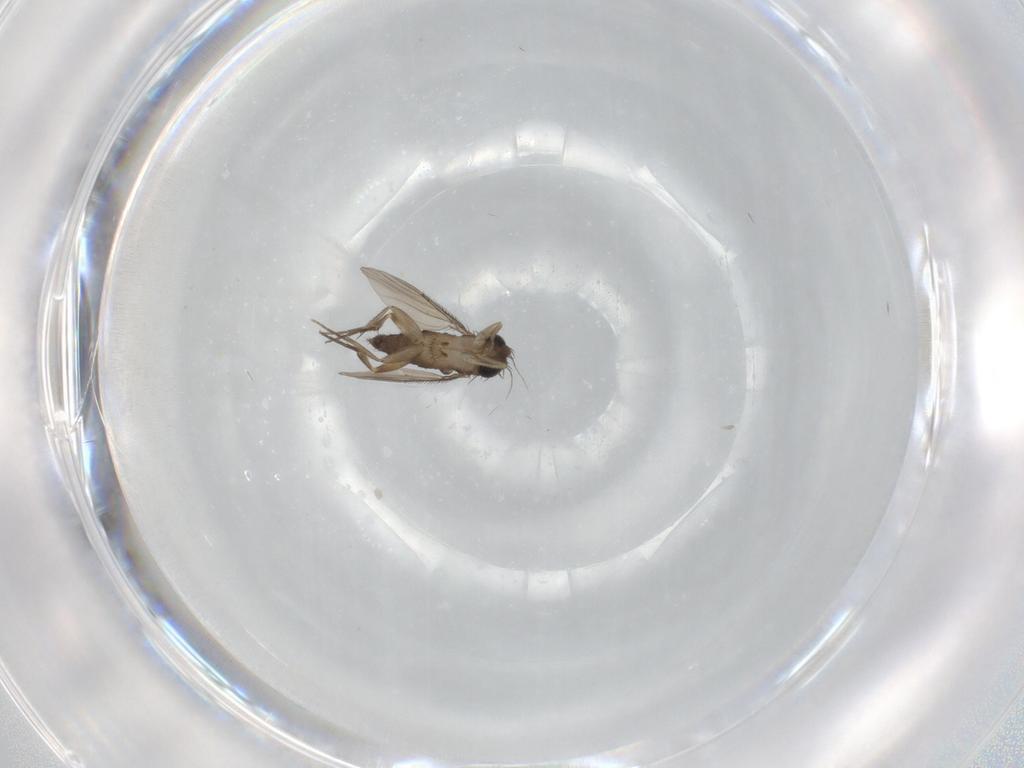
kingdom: Animalia
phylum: Arthropoda
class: Insecta
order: Diptera
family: Phoridae
